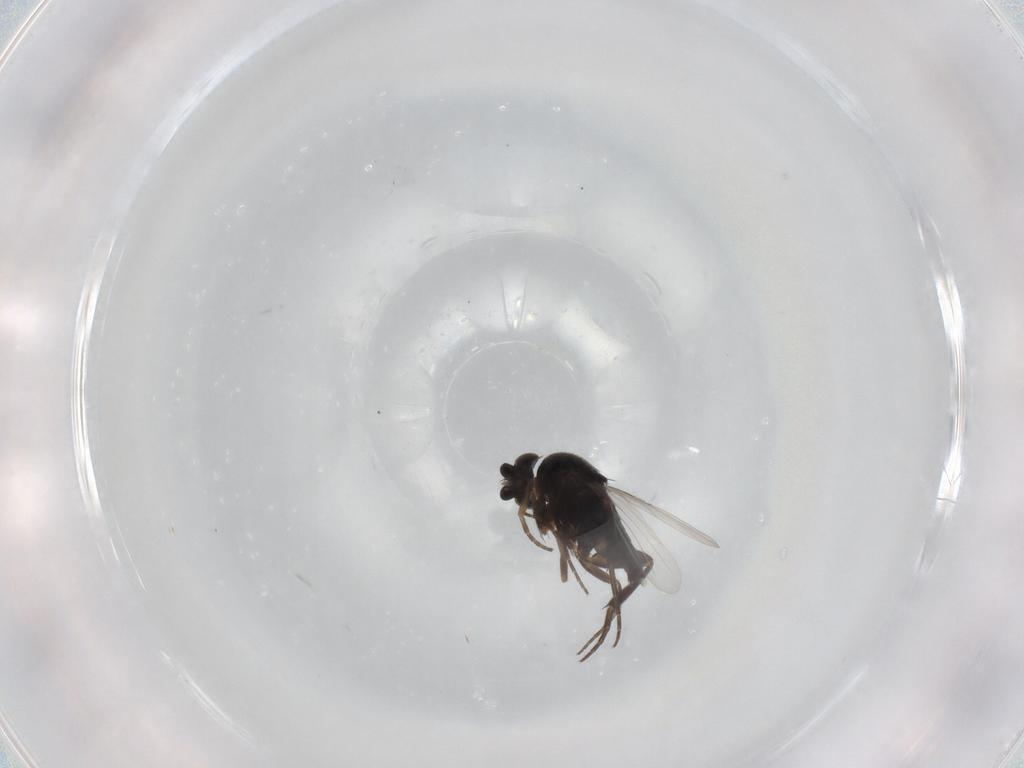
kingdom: Animalia
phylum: Arthropoda
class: Insecta
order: Diptera
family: Phoridae
